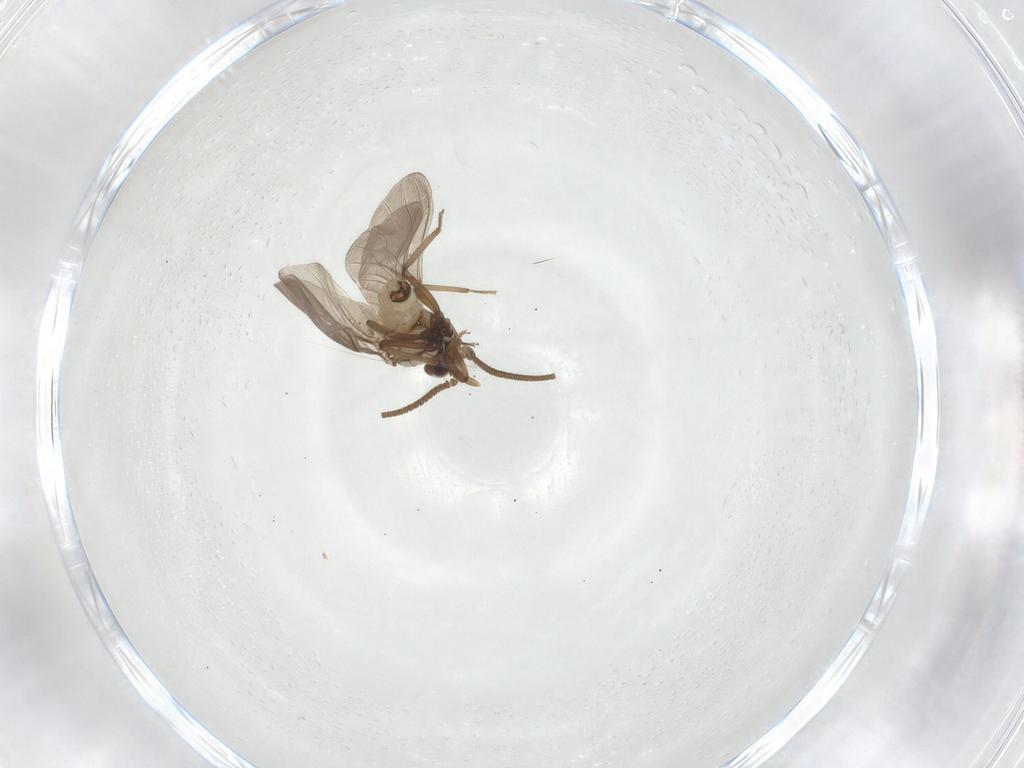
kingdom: Animalia
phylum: Arthropoda
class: Insecta
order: Neuroptera
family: Coniopterygidae
